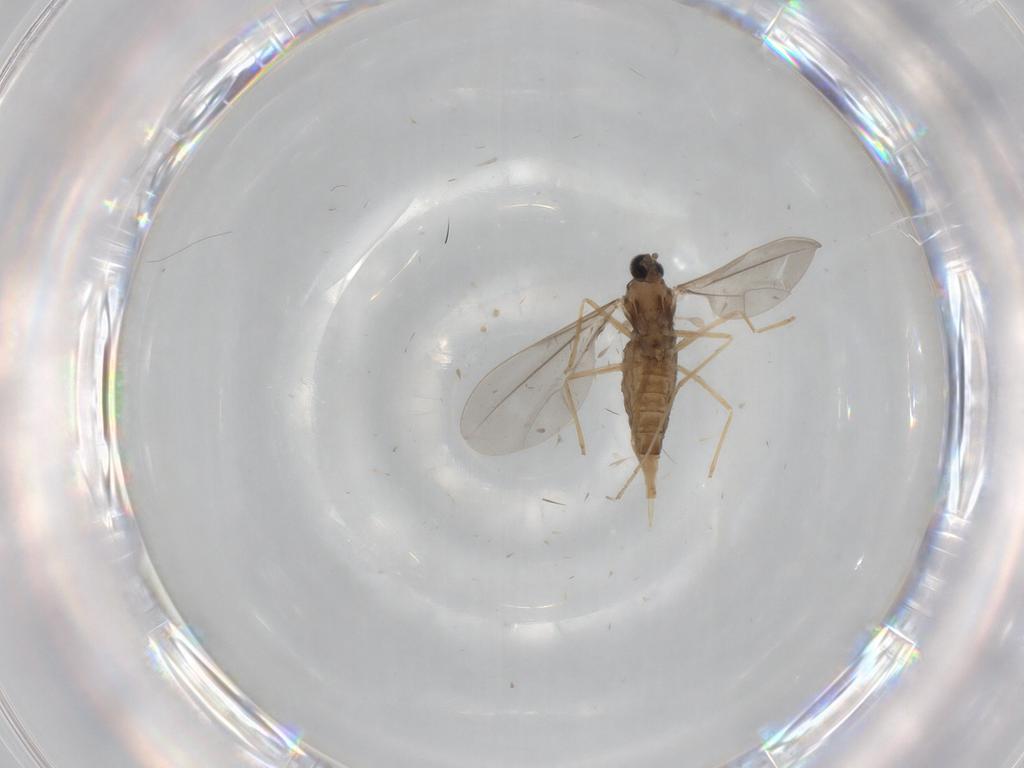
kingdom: Animalia
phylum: Arthropoda
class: Insecta
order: Diptera
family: Cecidomyiidae
